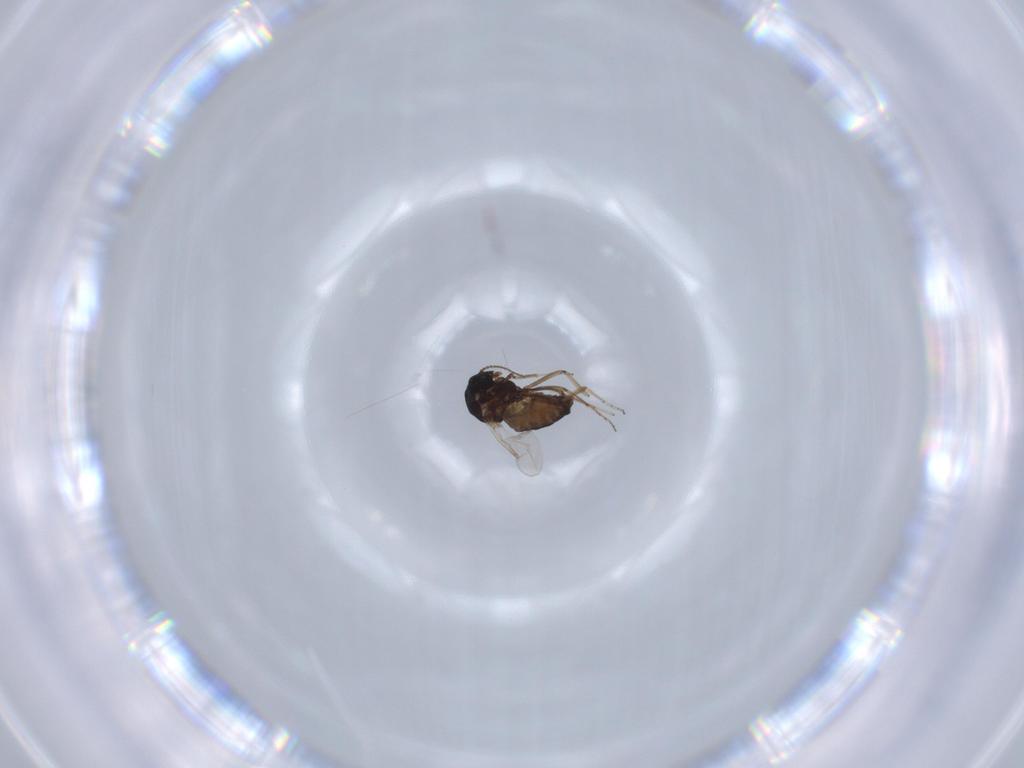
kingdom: Animalia
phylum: Arthropoda
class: Insecta
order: Diptera
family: Ceratopogonidae
